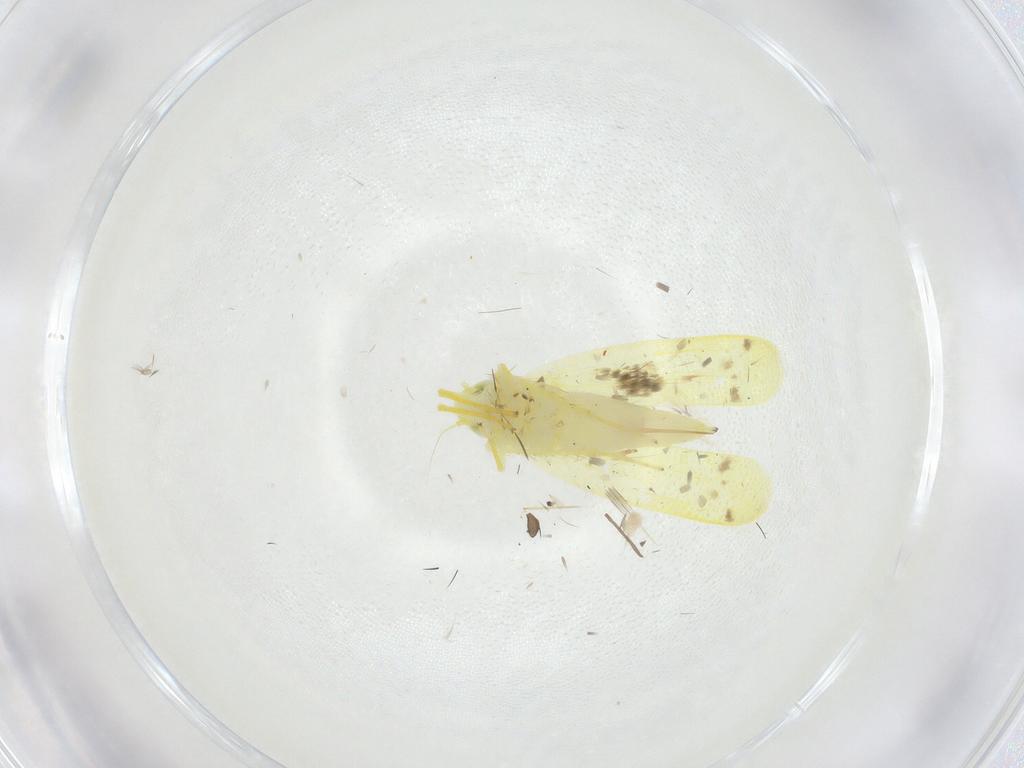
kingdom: Animalia
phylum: Arthropoda
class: Insecta
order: Hemiptera
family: Cicadellidae
